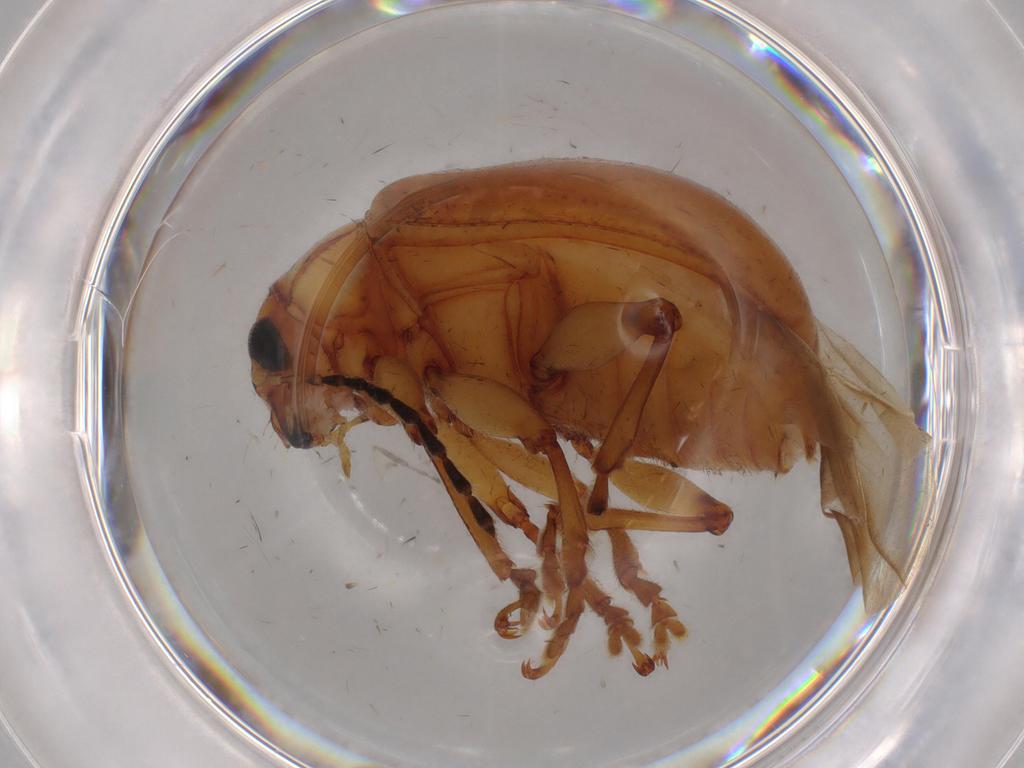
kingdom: Animalia
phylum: Arthropoda
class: Insecta
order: Coleoptera
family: Chrysomelidae
